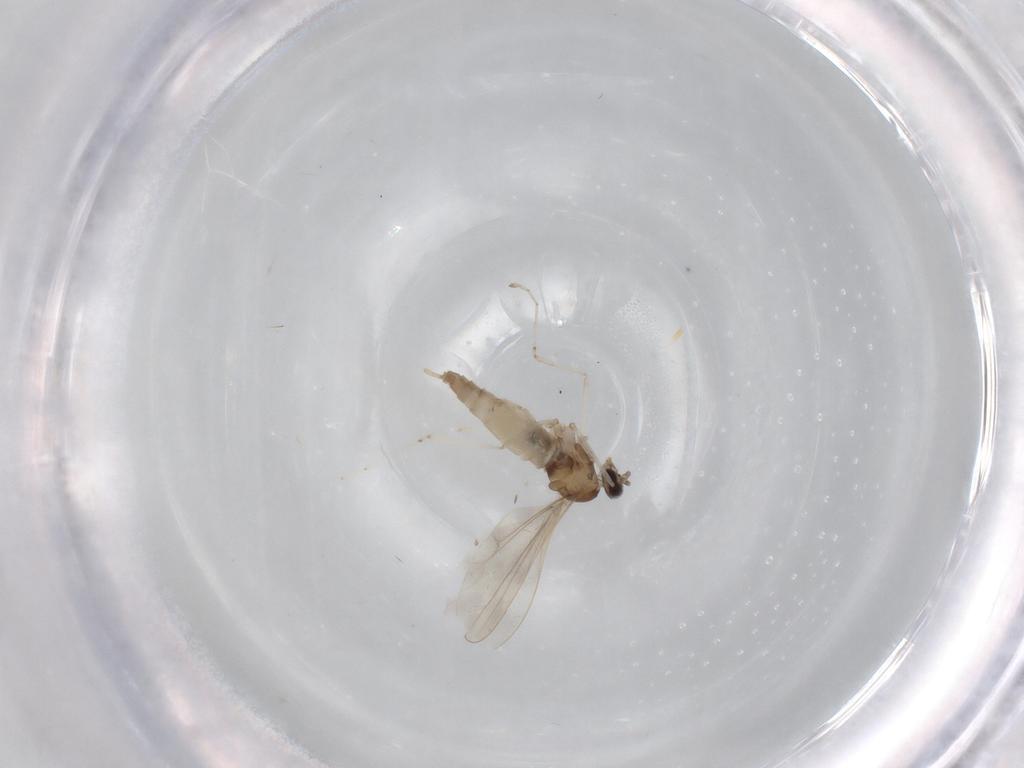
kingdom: Animalia
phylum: Arthropoda
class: Insecta
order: Diptera
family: Cecidomyiidae
